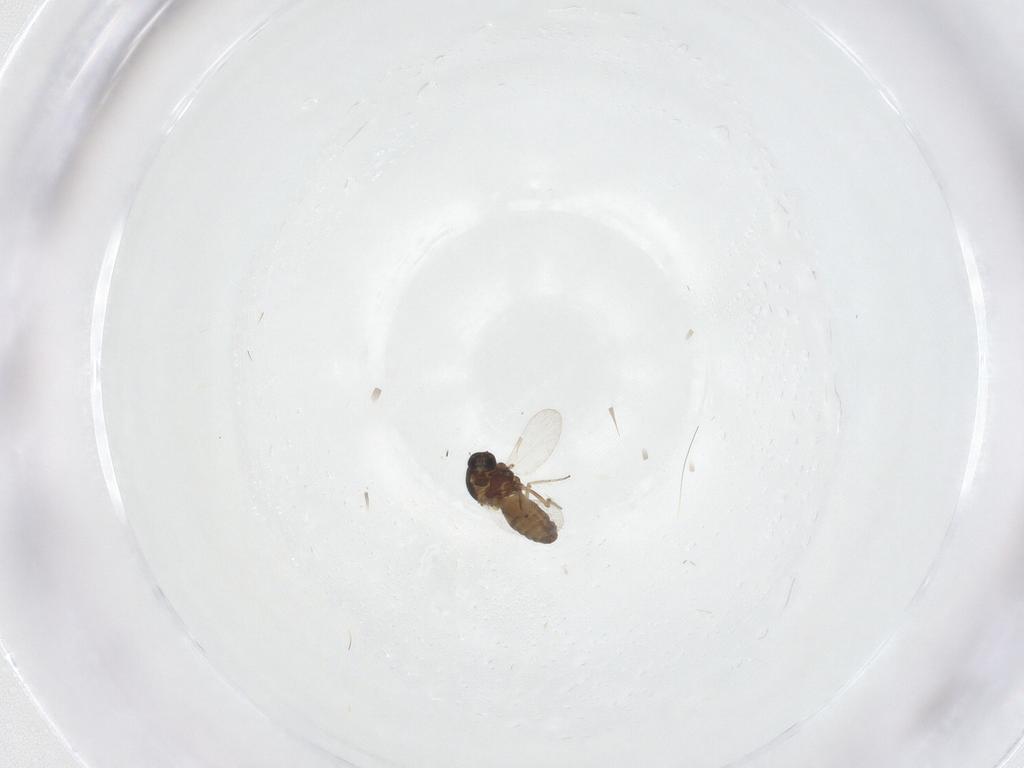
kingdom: Animalia
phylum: Arthropoda
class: Insecta
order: Diptera
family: Ceratopogonidae
